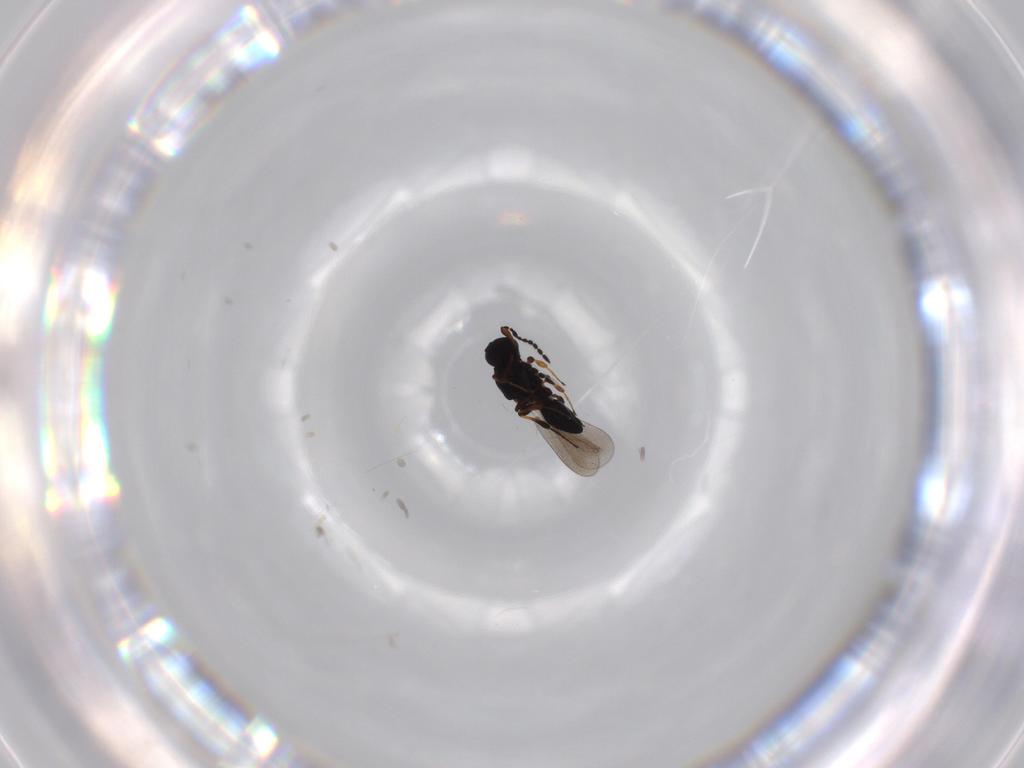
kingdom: Animalia
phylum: Arthropoda
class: Insecta
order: Hymenoptera
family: Platygastridae
